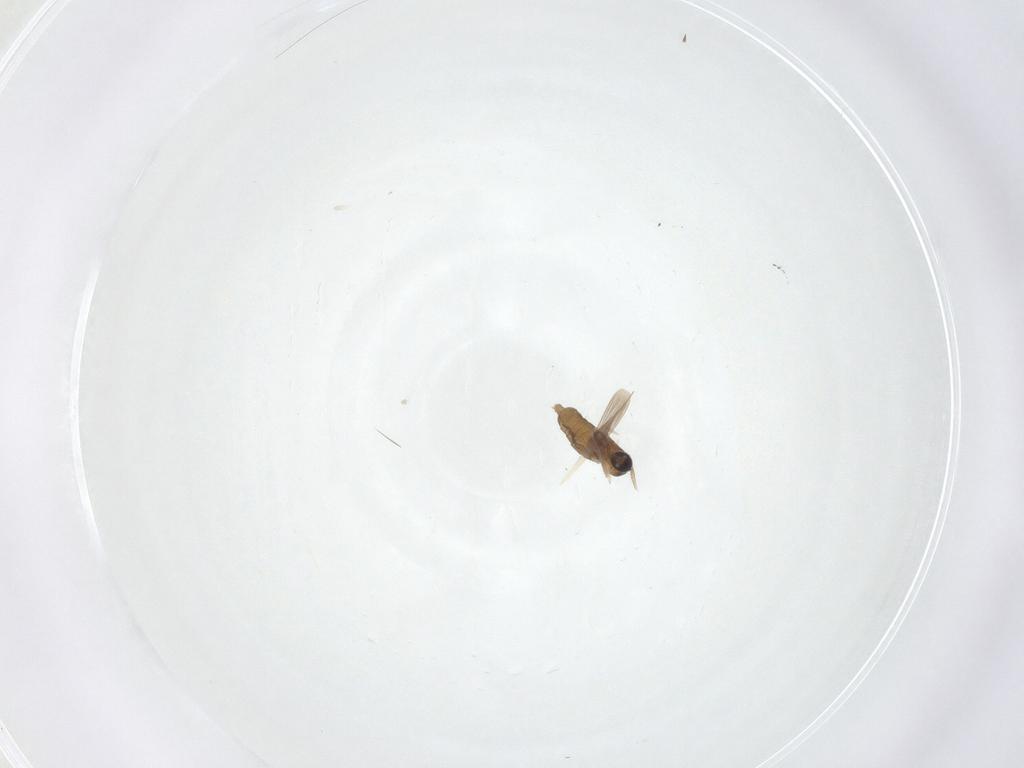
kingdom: Animalia
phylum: Arthropoda
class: Insecta
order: Diptera
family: Cecidomyiidae
